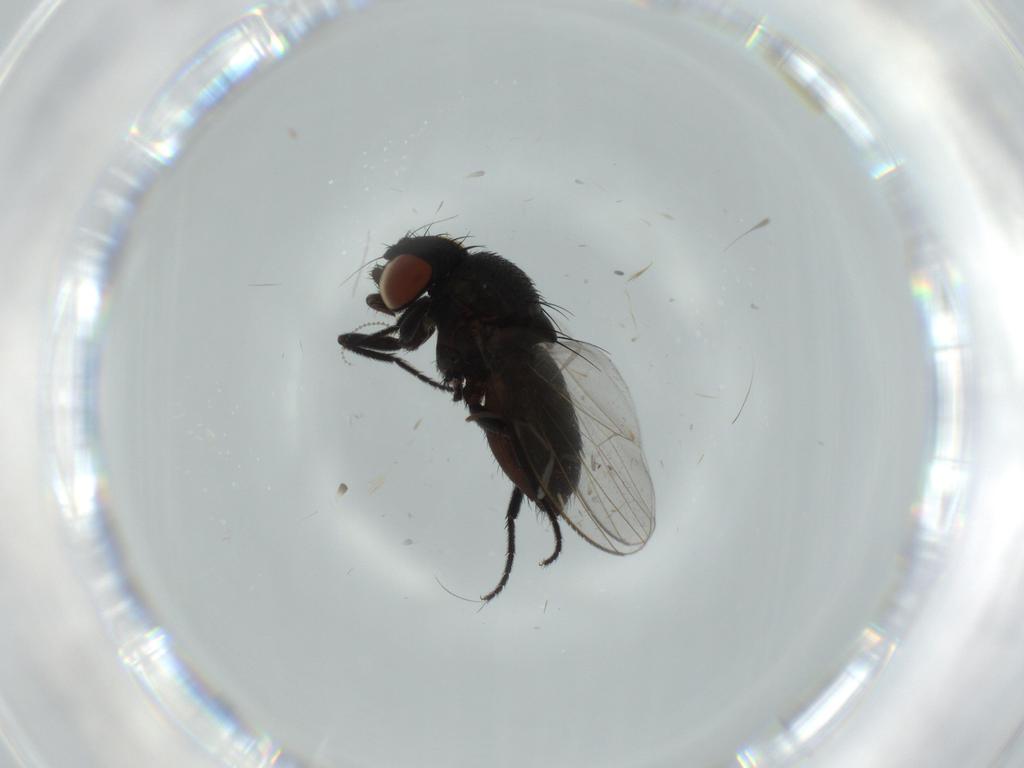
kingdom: Animalia
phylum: Arthropoda
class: Insecta
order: Diptera
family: Milichiidae
